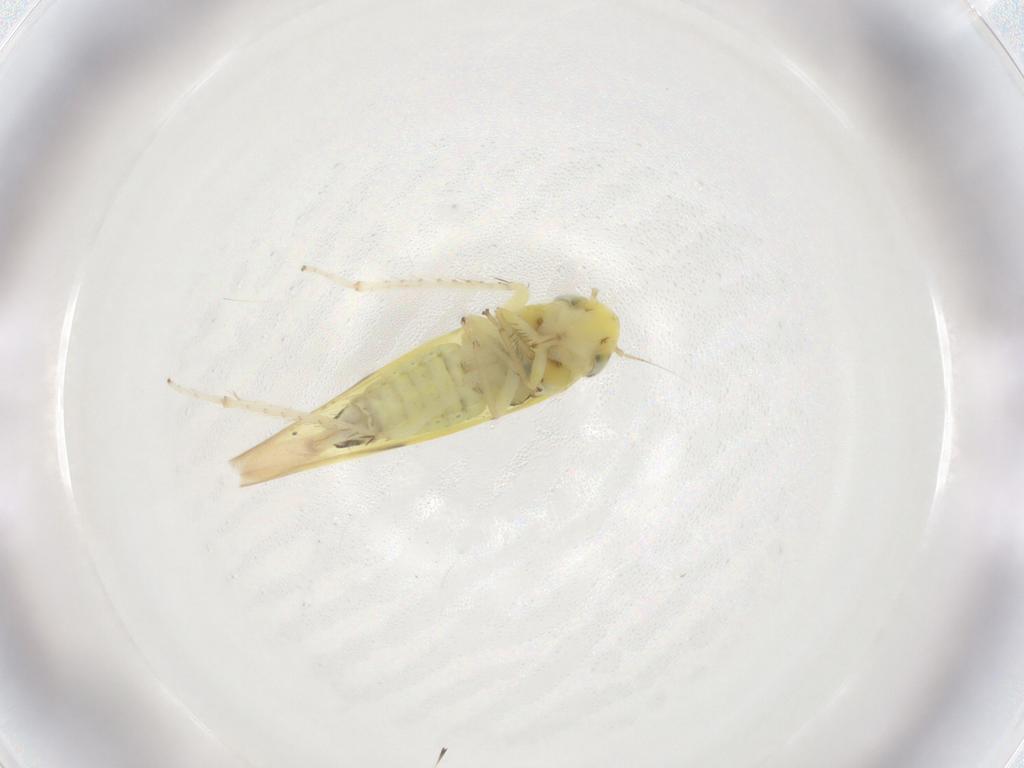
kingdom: Animalia
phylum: Arthropoda
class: Insecta
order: Hemiptera
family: Cicadellidae
